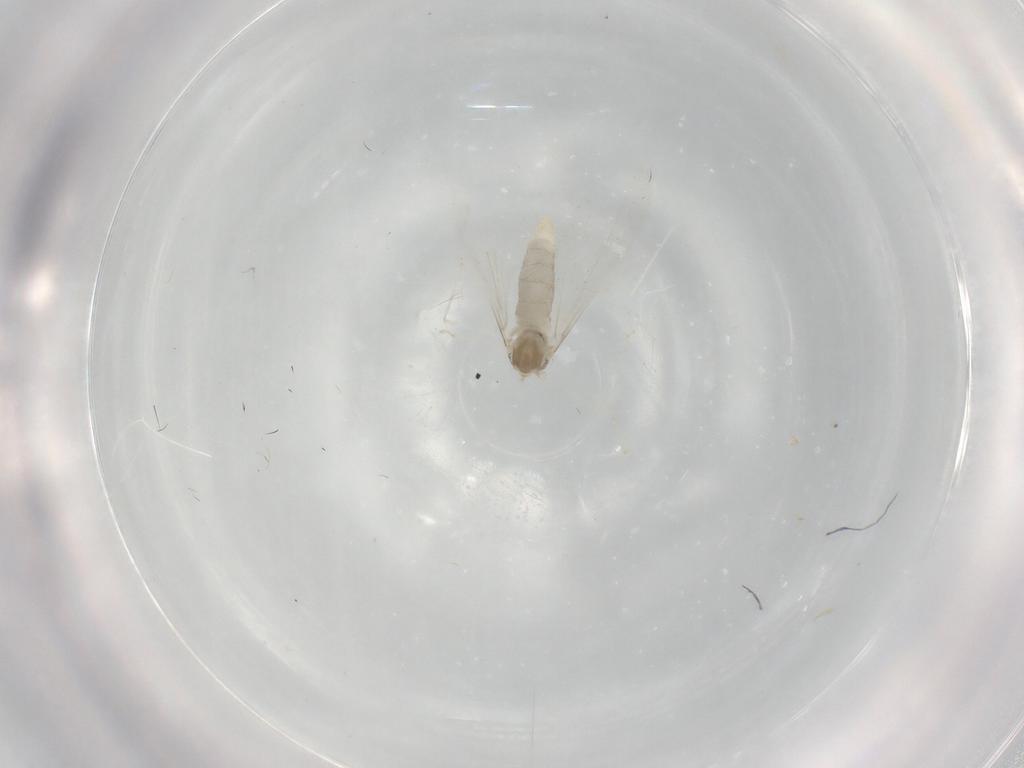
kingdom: Animalia
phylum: Arthropoda
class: Insecta
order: Diptera
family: Cecidomyiidae
